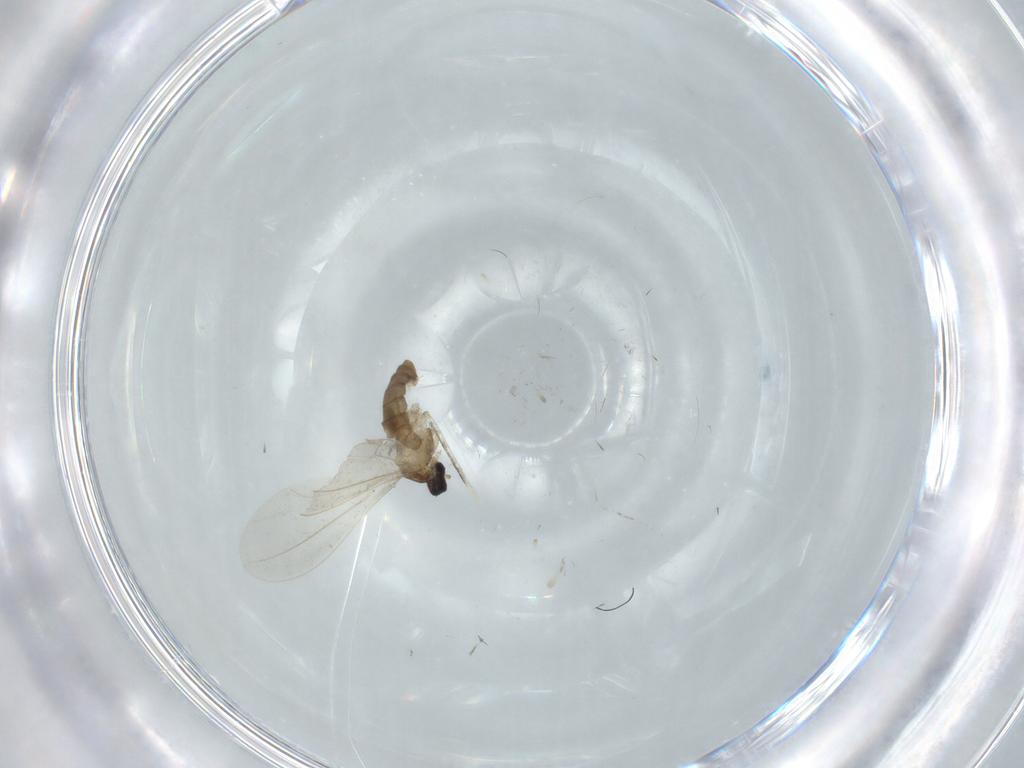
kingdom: Animalia
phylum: Arthropoda
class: Insecta
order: Diptera
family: Cecidomyiidae
